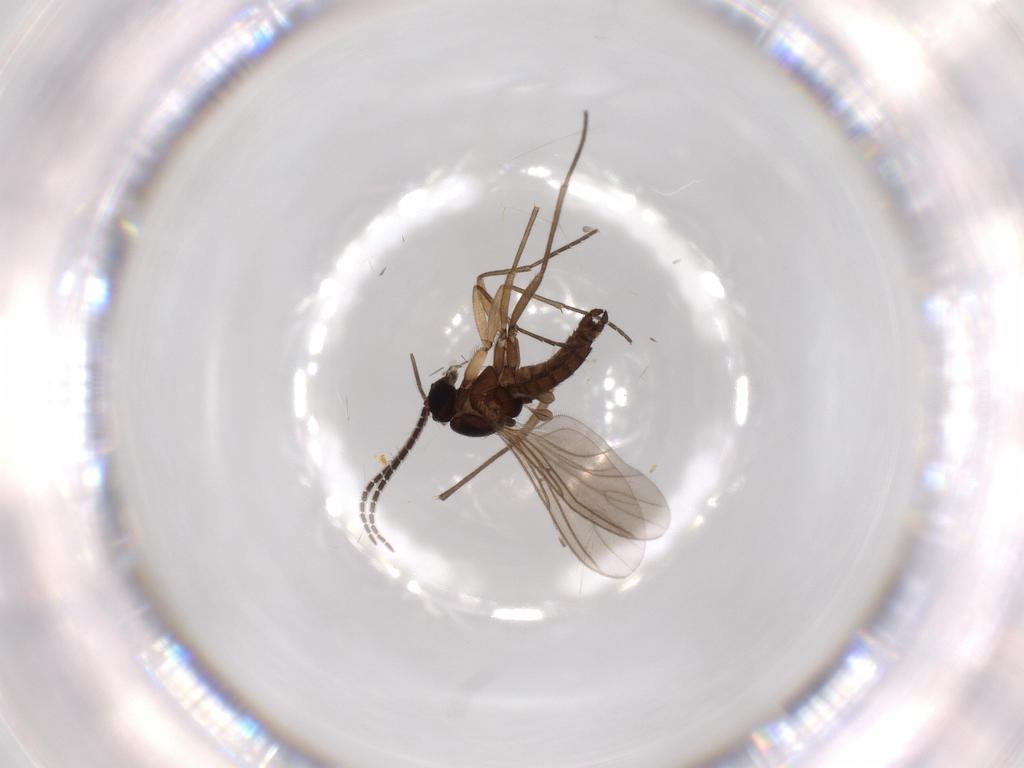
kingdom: Animalia
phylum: Arthropoda
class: Insecta
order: Diptera
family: Sciaridae
